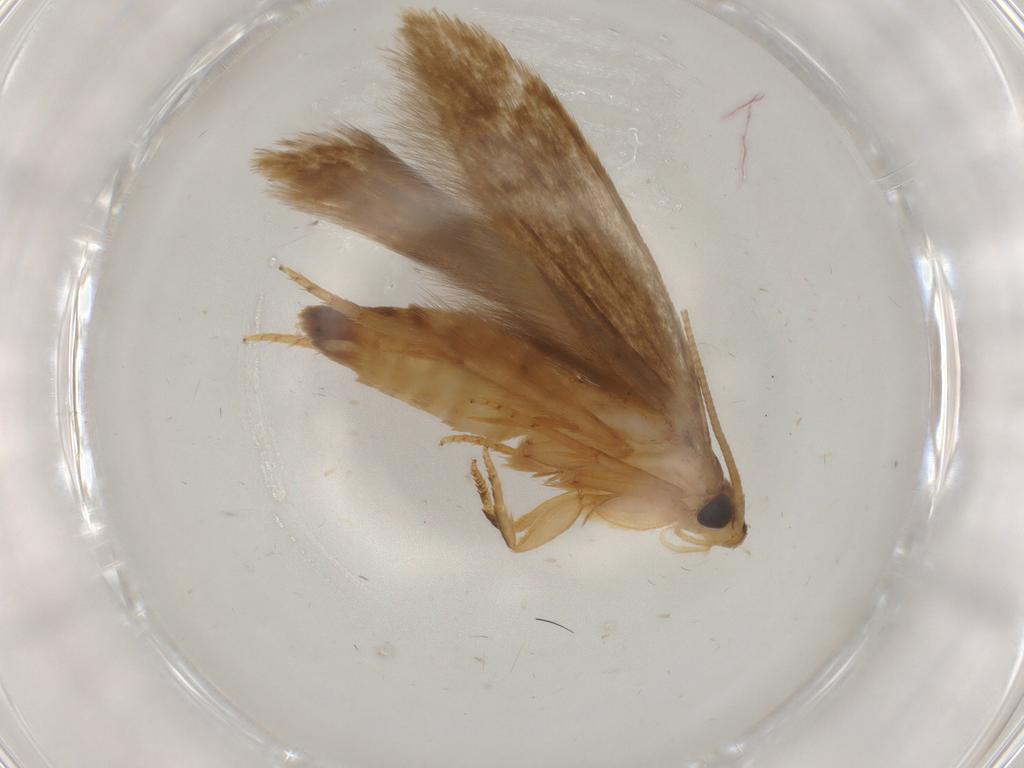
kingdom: Animalia
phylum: Arthropoda
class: Insecta
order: Lepidoptera
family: Tineidae
